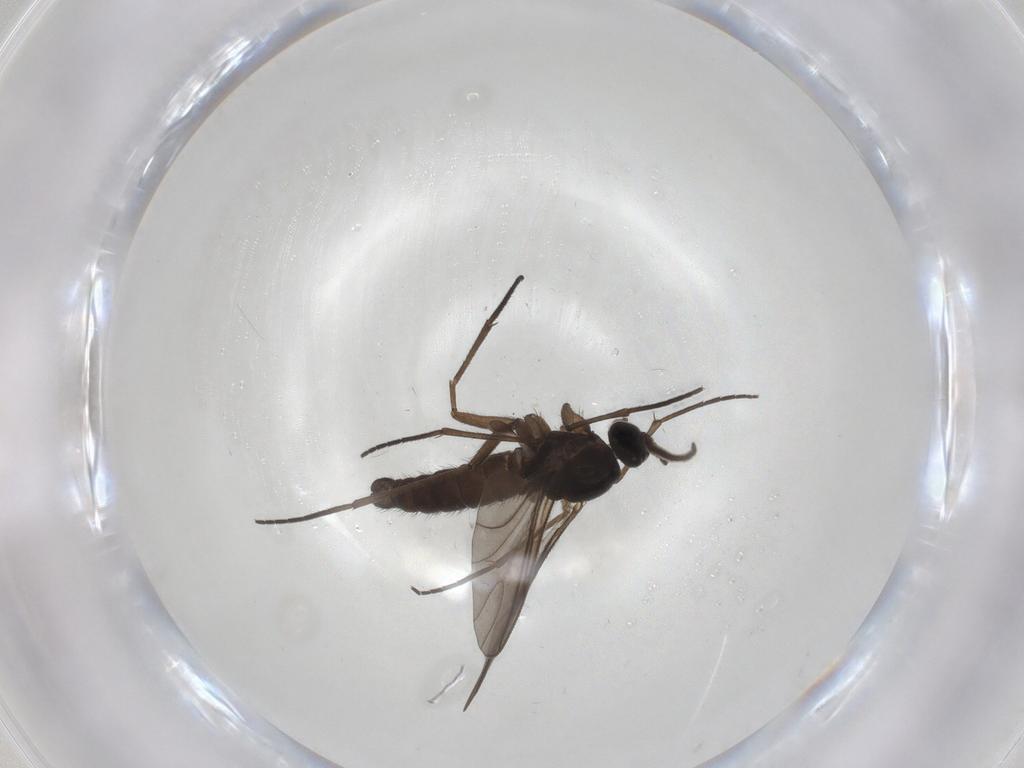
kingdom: Animalia
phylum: Arthropoda
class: Insecta
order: Diptera
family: Sciaridae
